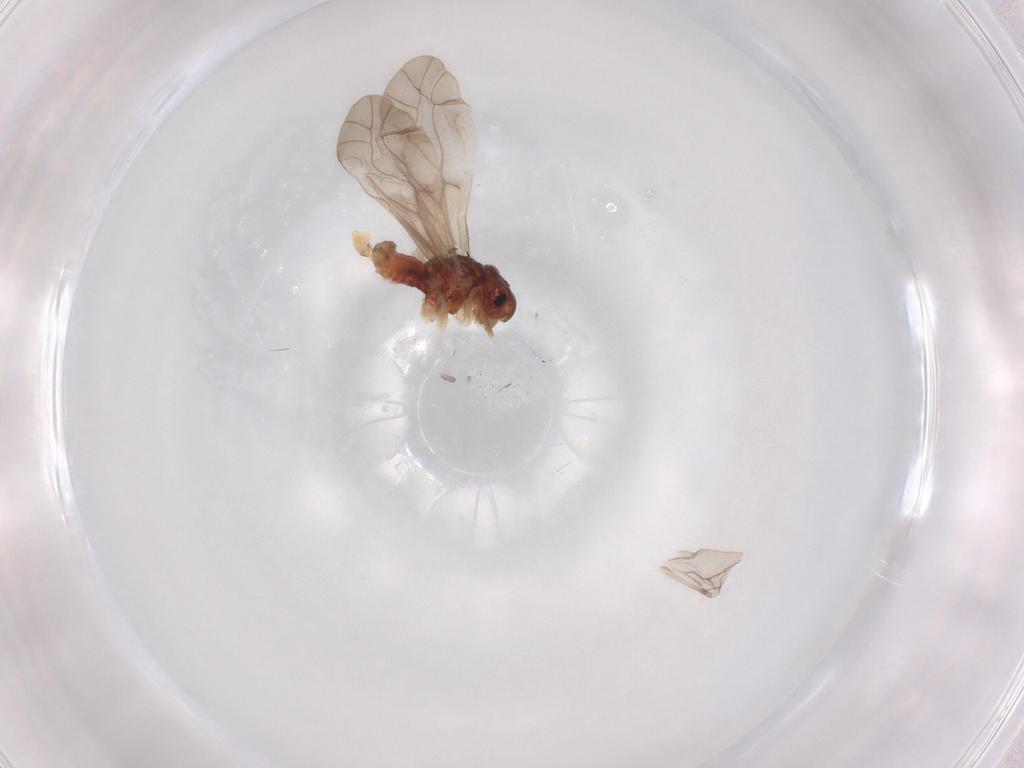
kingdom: Animalia
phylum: Arthropoda
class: Insecta
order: Psocodea
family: Caeciliusidae
